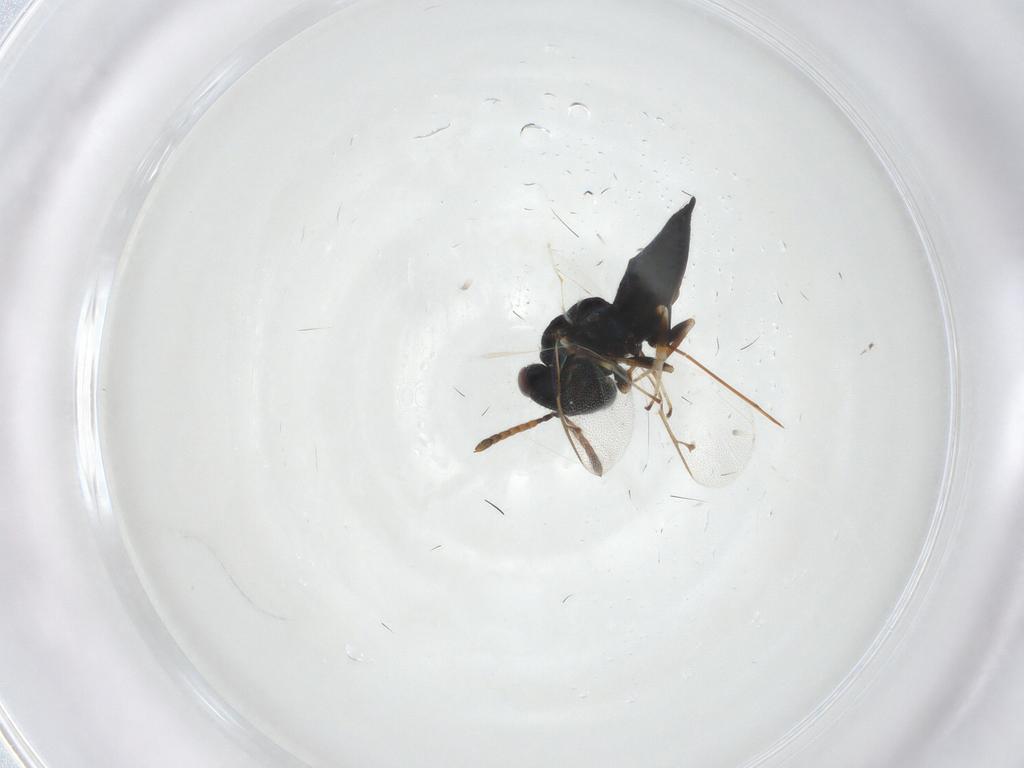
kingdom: Animalia
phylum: Arthropoda
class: Insecta
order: Hymenoptera
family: Pteromalidae
